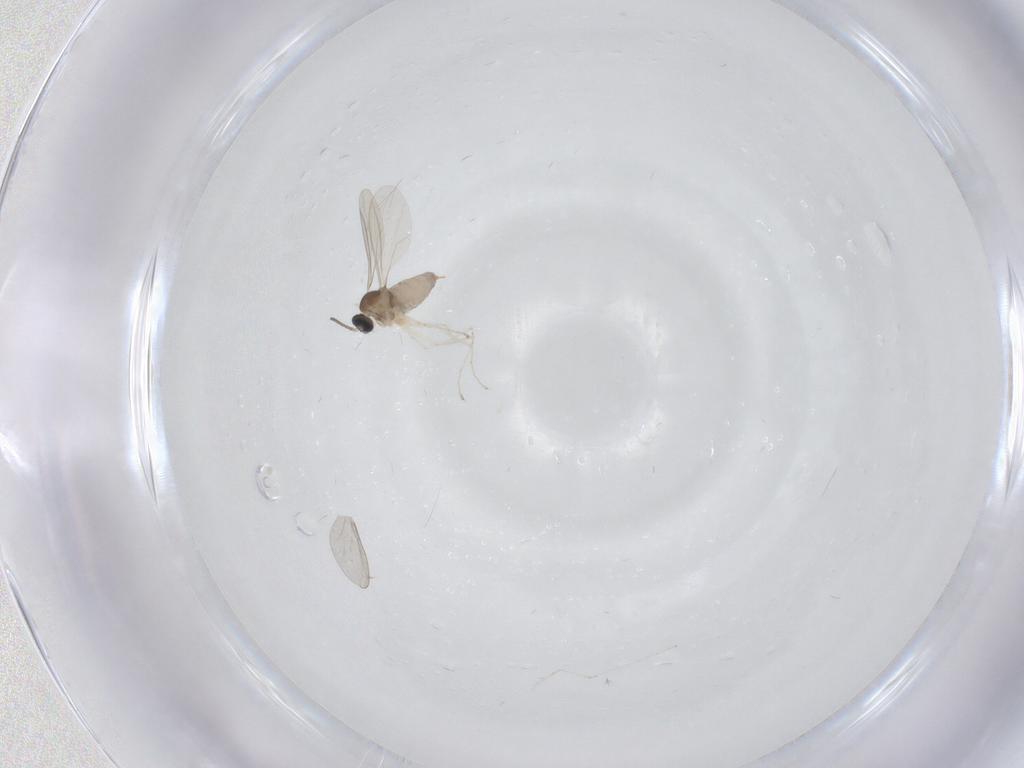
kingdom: Animalia
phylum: Arthropoda
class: Insecta
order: Diptera
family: Cecidomyiidae
